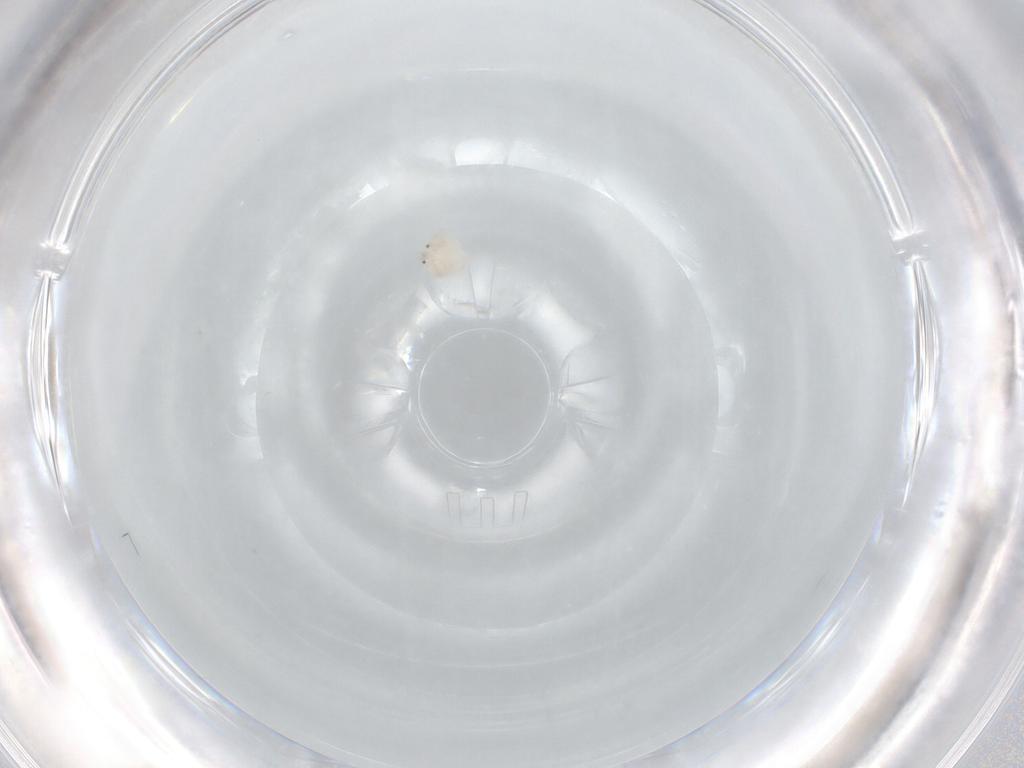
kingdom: Animalia
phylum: Arthropoda
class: Arachnida
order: Trombidiformes
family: Arrenuridae
